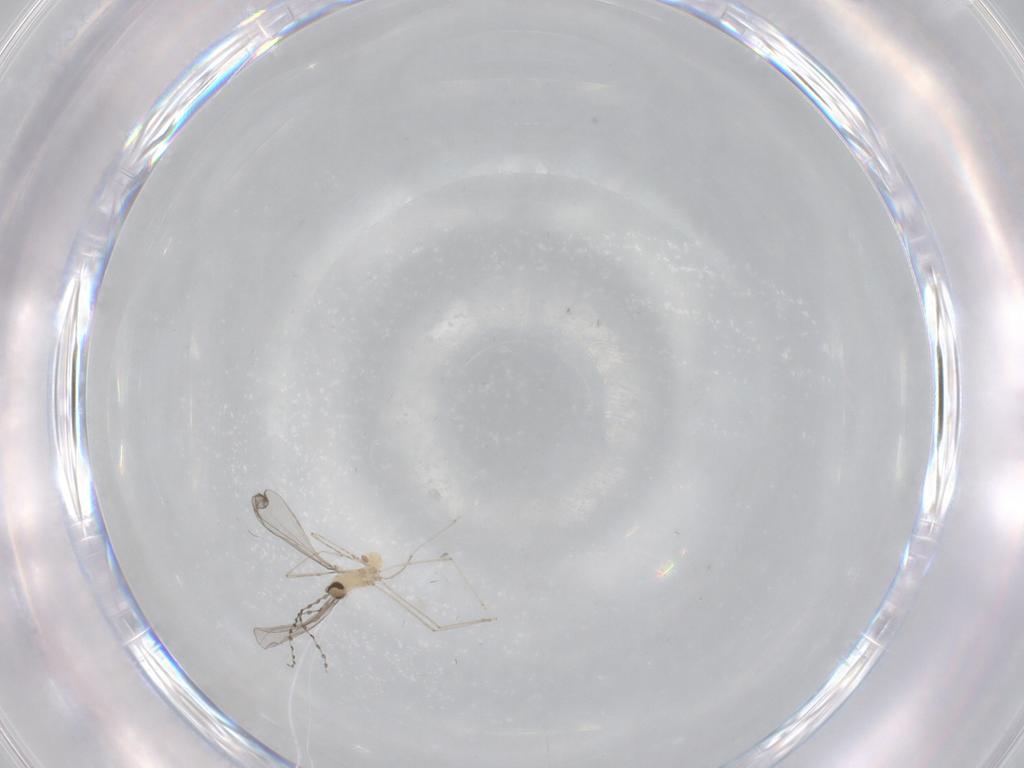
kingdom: Animalia
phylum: Arthropoda
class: Insecta
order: Diptera
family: Cecidomyiidae
